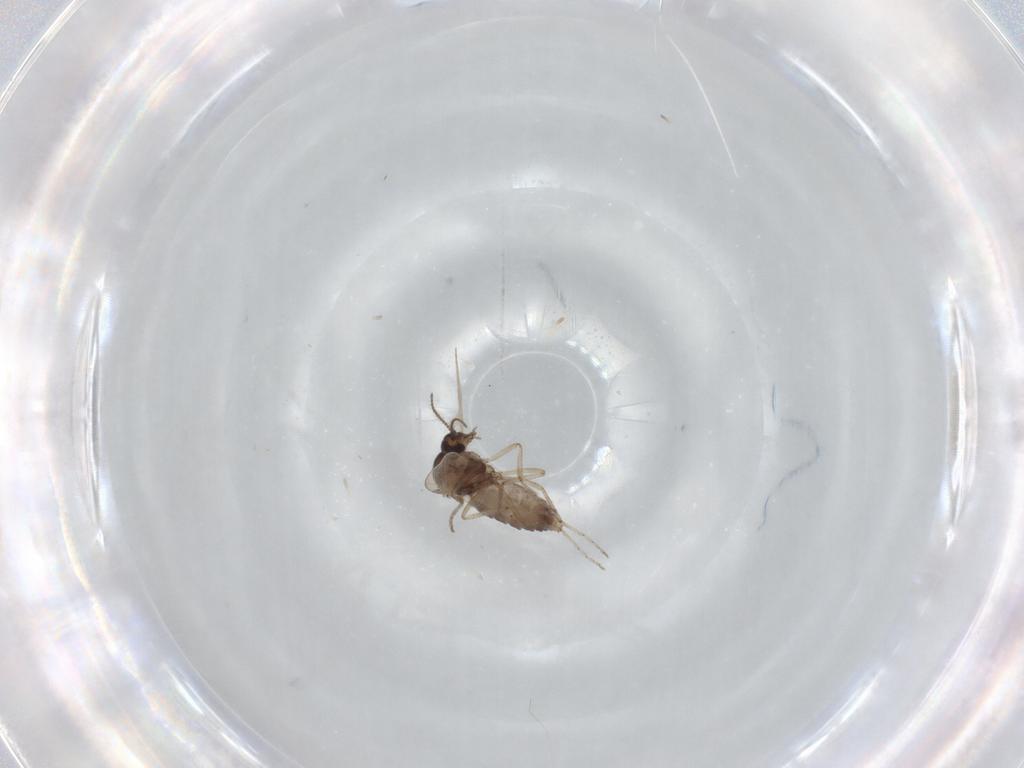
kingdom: Animalia
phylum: Arthropoda
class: Insecta
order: Diptera
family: Ceratopogonidae
